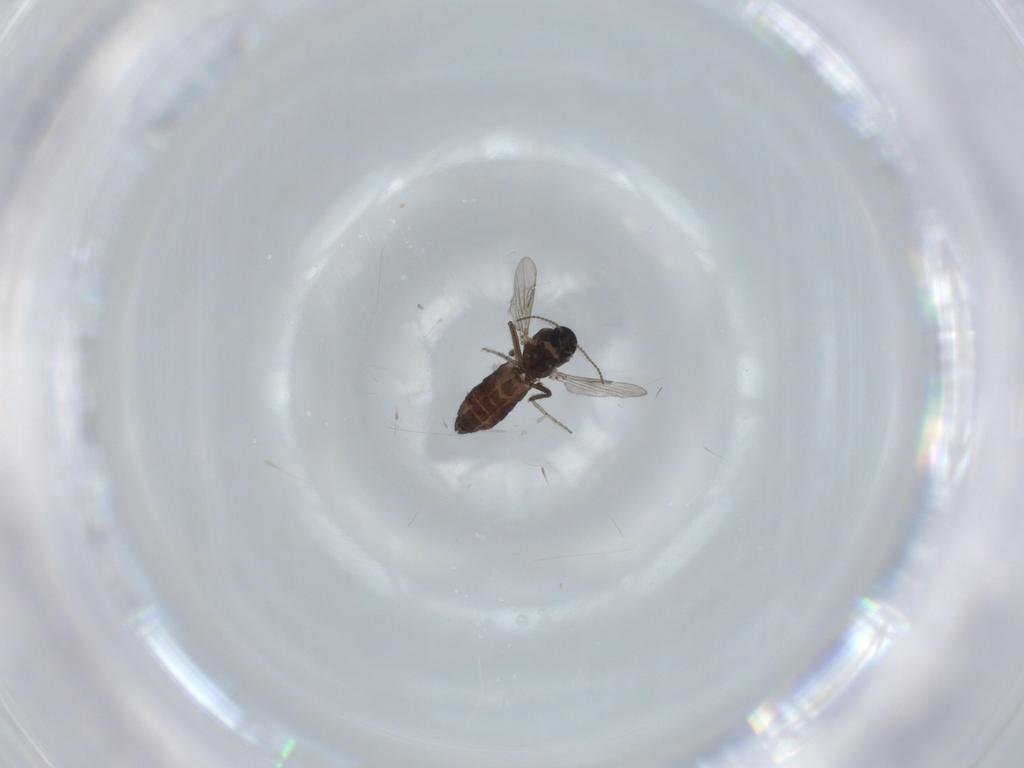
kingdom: Animalia
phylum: Arthropoda
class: Insecta
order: Diptera
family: Ceratopogonidae
